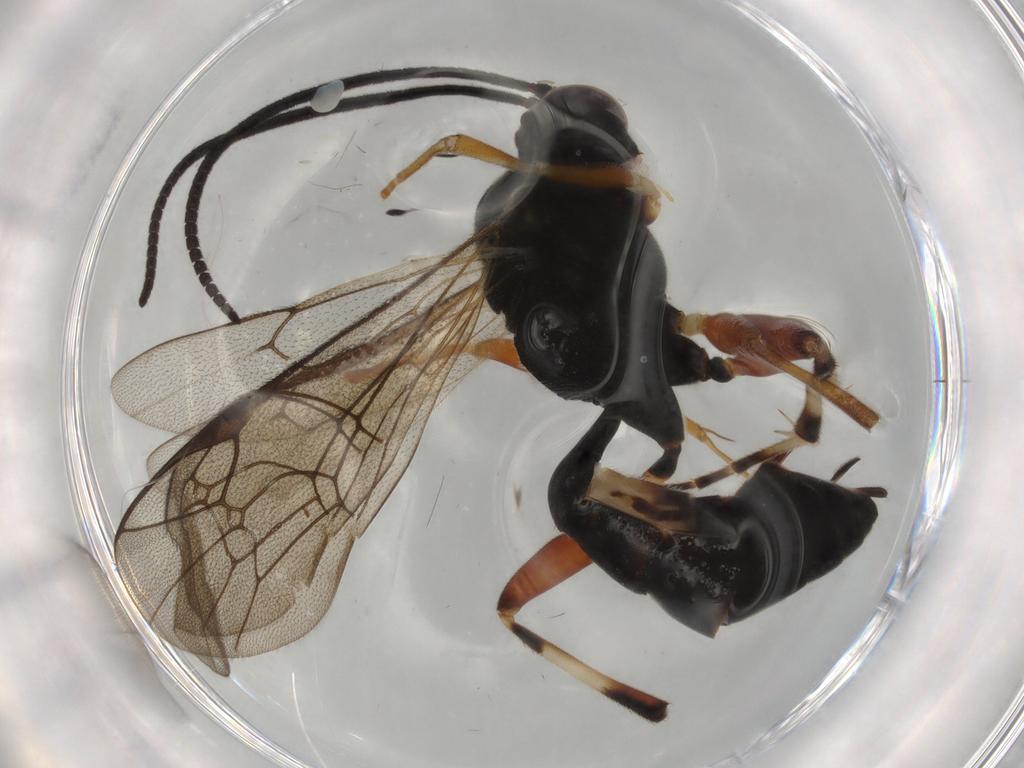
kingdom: Animalia
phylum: Arthropoda
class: Insecta
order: Hymenoptera
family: Ichneumonidae
